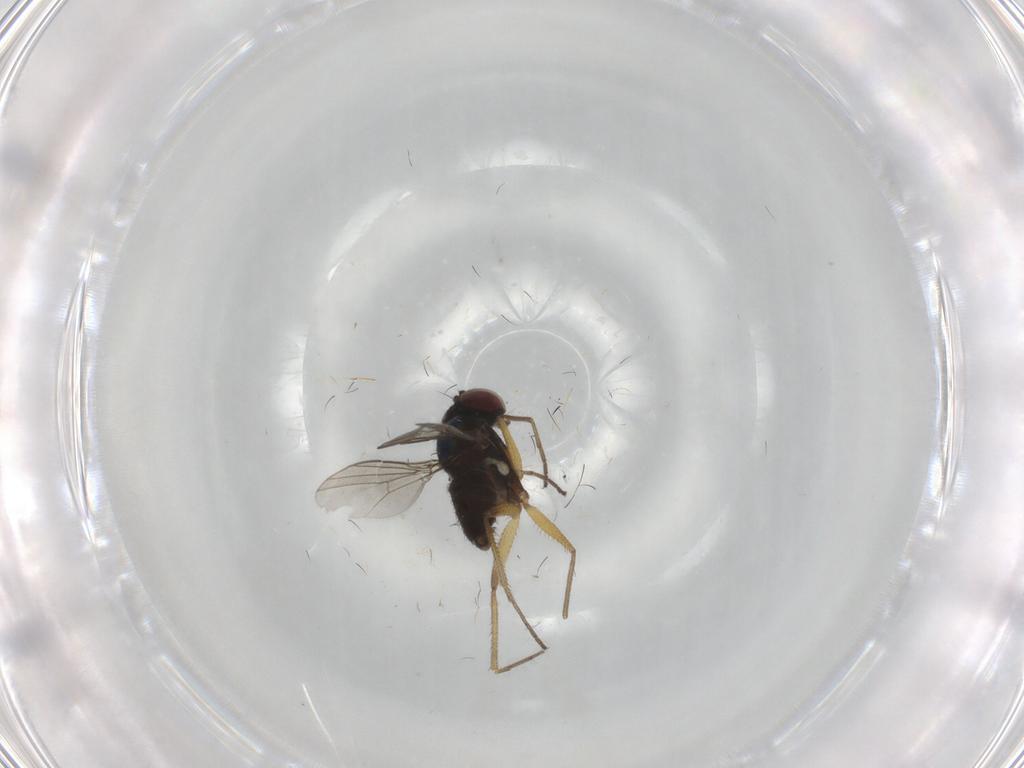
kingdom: Animalia
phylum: Arthropoda
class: Insecta
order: Diptera
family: Dolichopodidae
